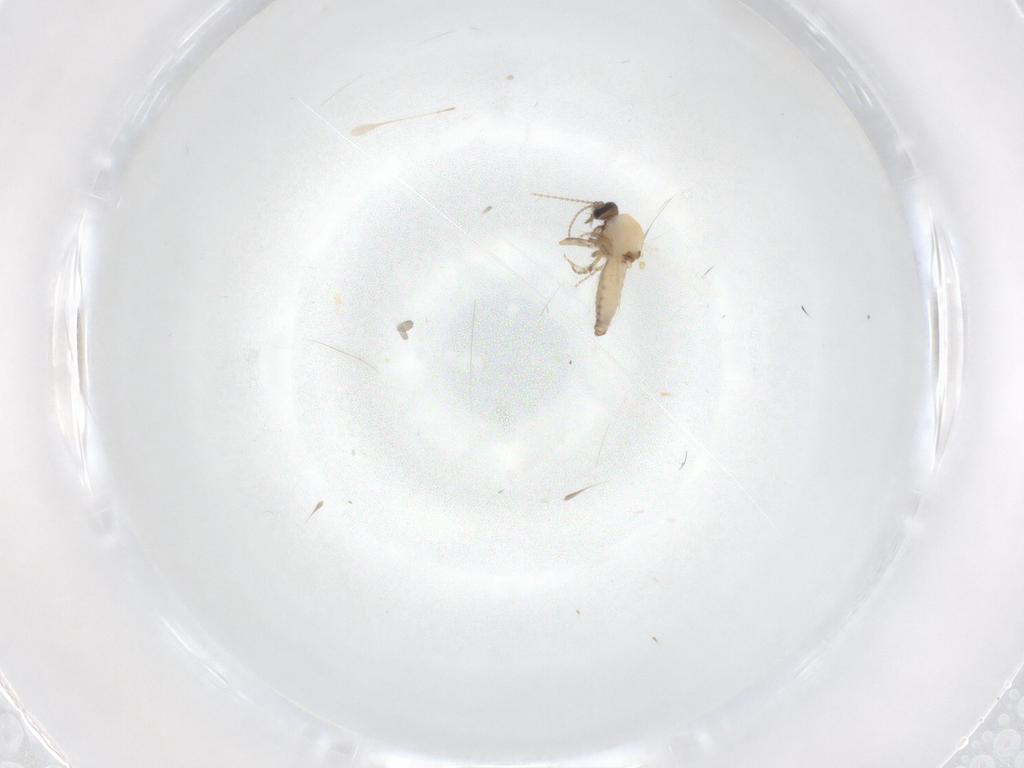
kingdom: Animalia
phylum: Arthropoda
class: Insecta
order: Diptera
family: Ceratopogonidae
